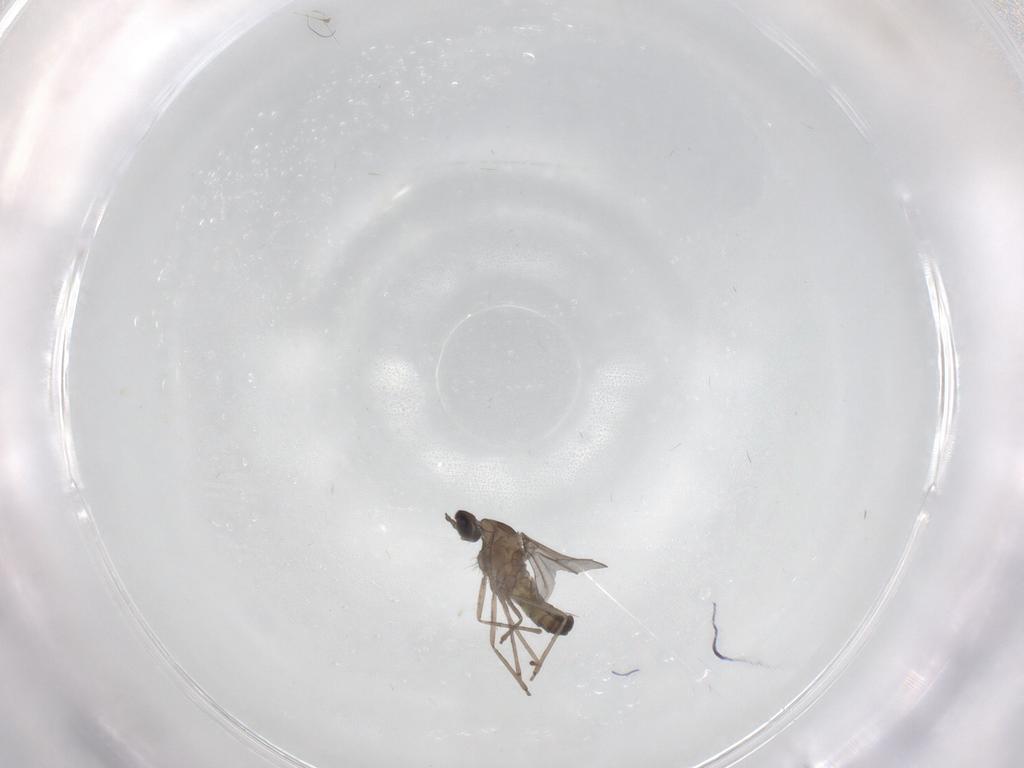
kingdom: Animalia
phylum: Arthropoda
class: Insecta
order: Diptera
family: Cecidomyiidae
